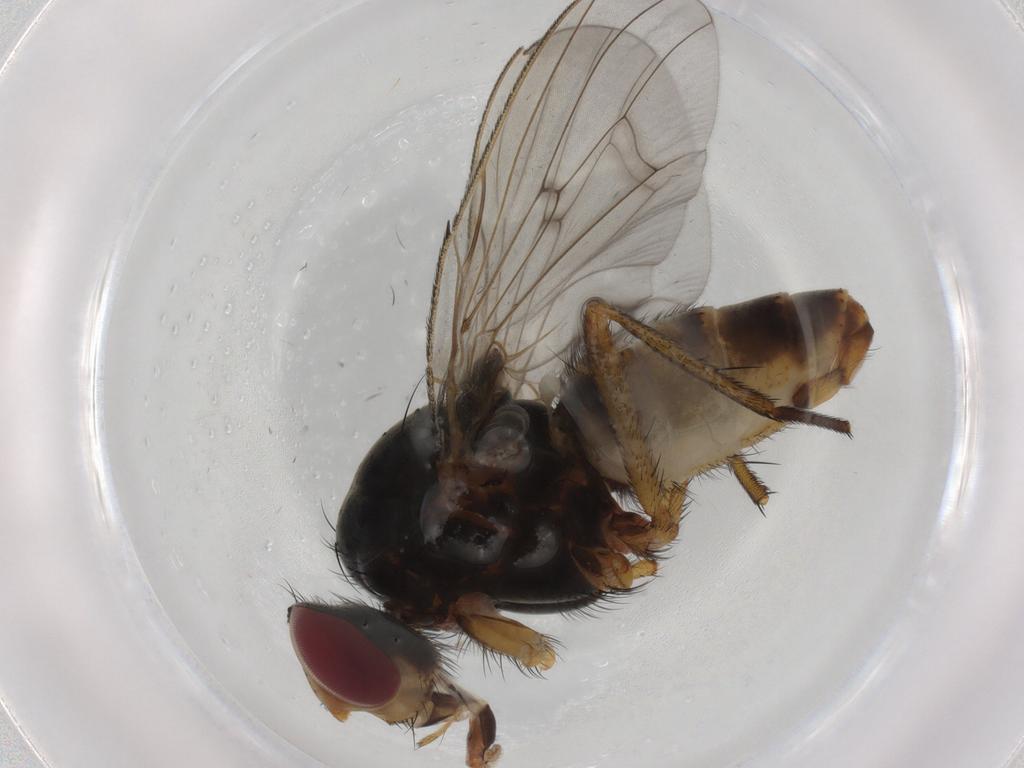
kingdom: Animalia
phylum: Arthropoda
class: Insecta
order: Diptera
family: Anthomyiidae
